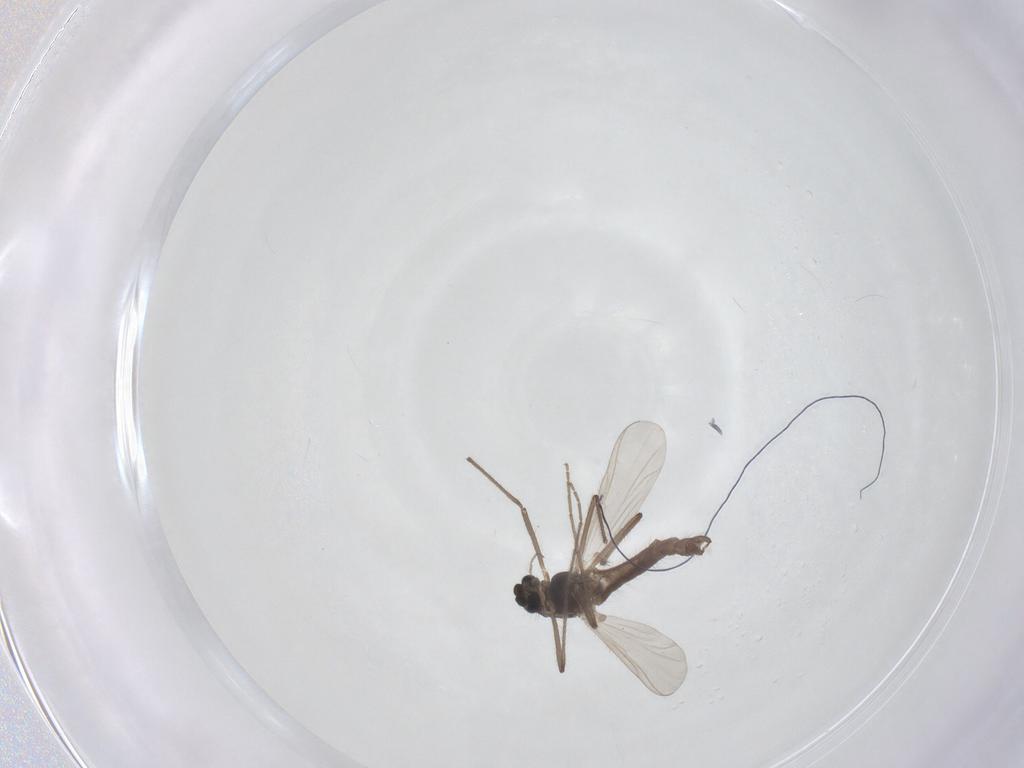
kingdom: Animalia
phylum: Arthropoda
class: Insecta
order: Diptera
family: Chironomidae
